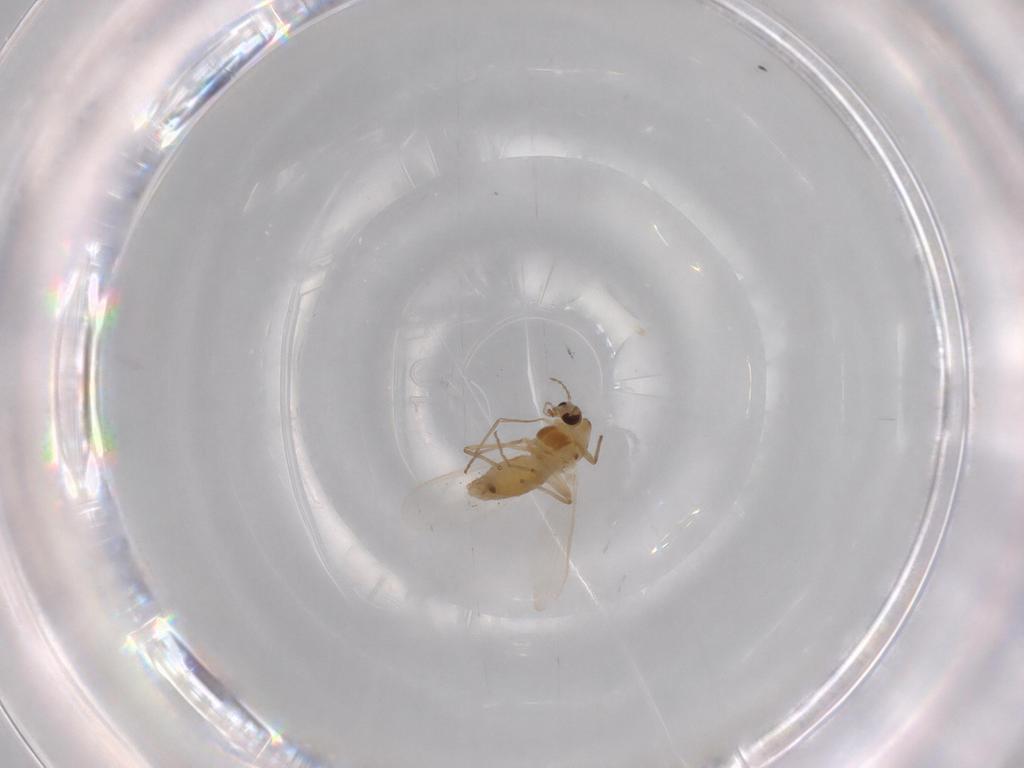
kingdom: Animalia
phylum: Arthropoda
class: Insecta
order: Diptera
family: Chironomidae
